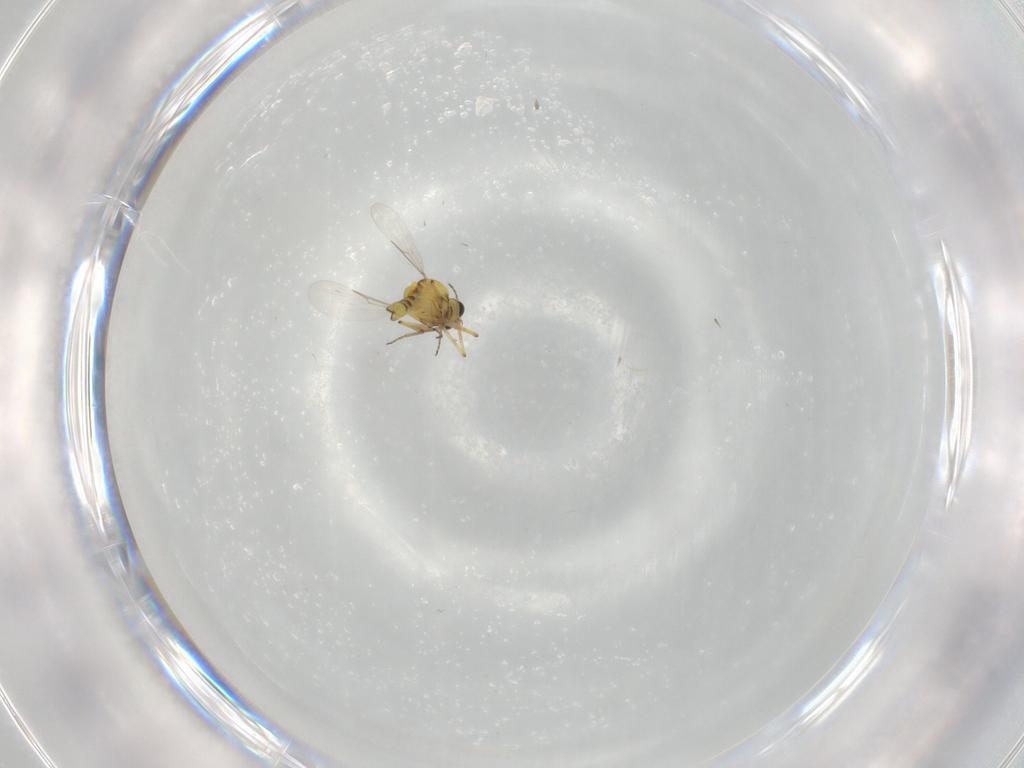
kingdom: Animalia
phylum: Arthropoda
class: Insecta
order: Diptera
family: Ceratopogonidae
